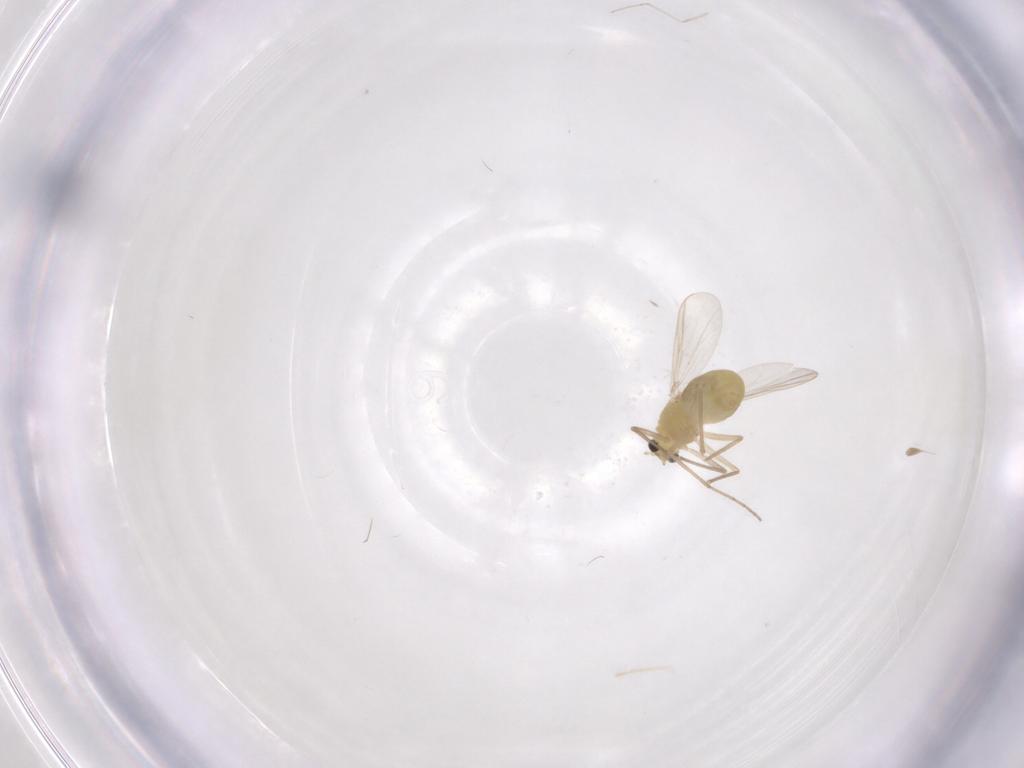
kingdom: Animalia
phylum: Arthropoda
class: Insecta
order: Diptera
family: Chironomidae
